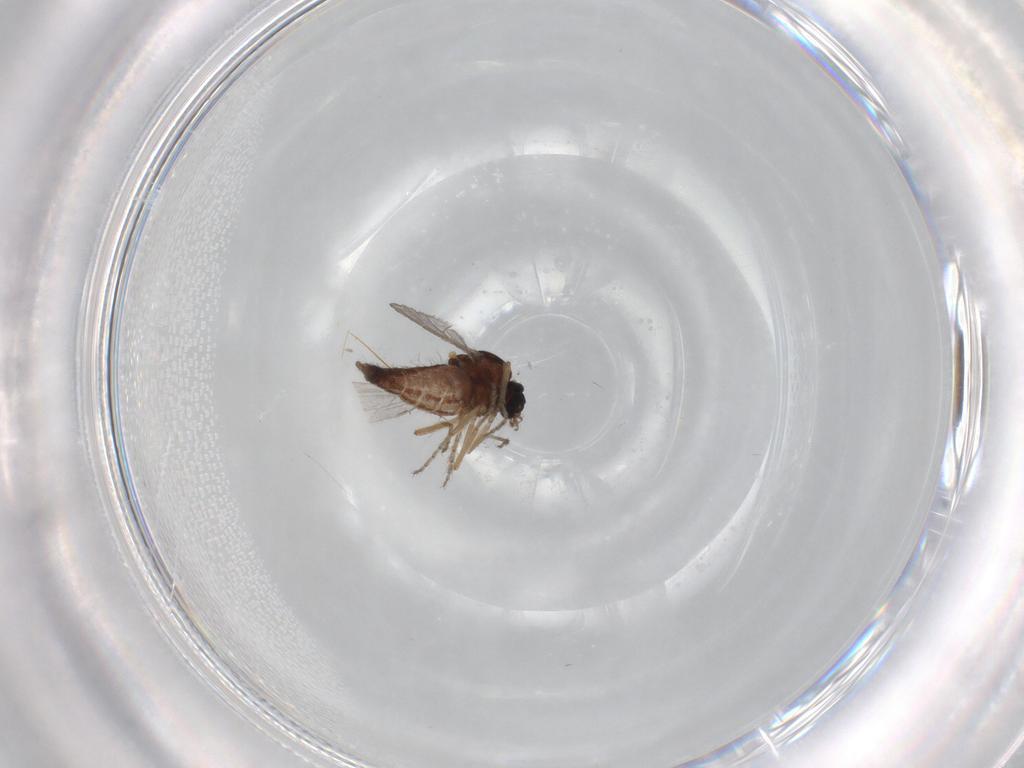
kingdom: Animalia
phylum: Arthropoda
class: Insecta
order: Diptera
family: Ceratopogonidae
